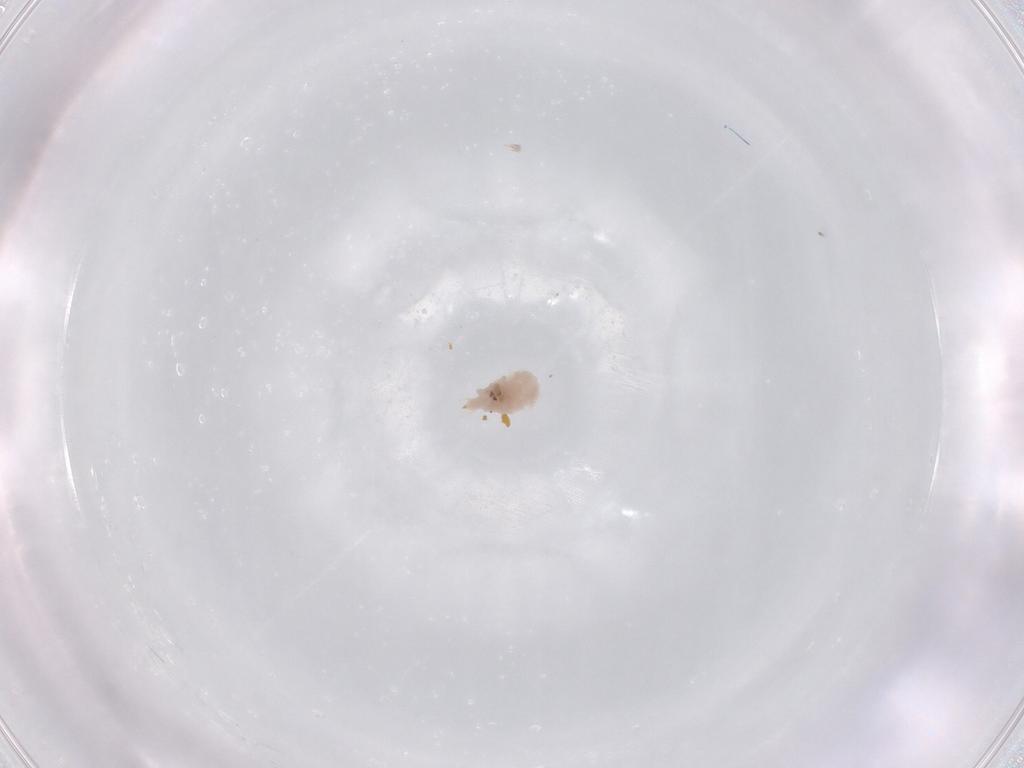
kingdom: Animalia
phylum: Arthropoda
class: Arachnida
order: Trombidiformes
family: Bdellidae
